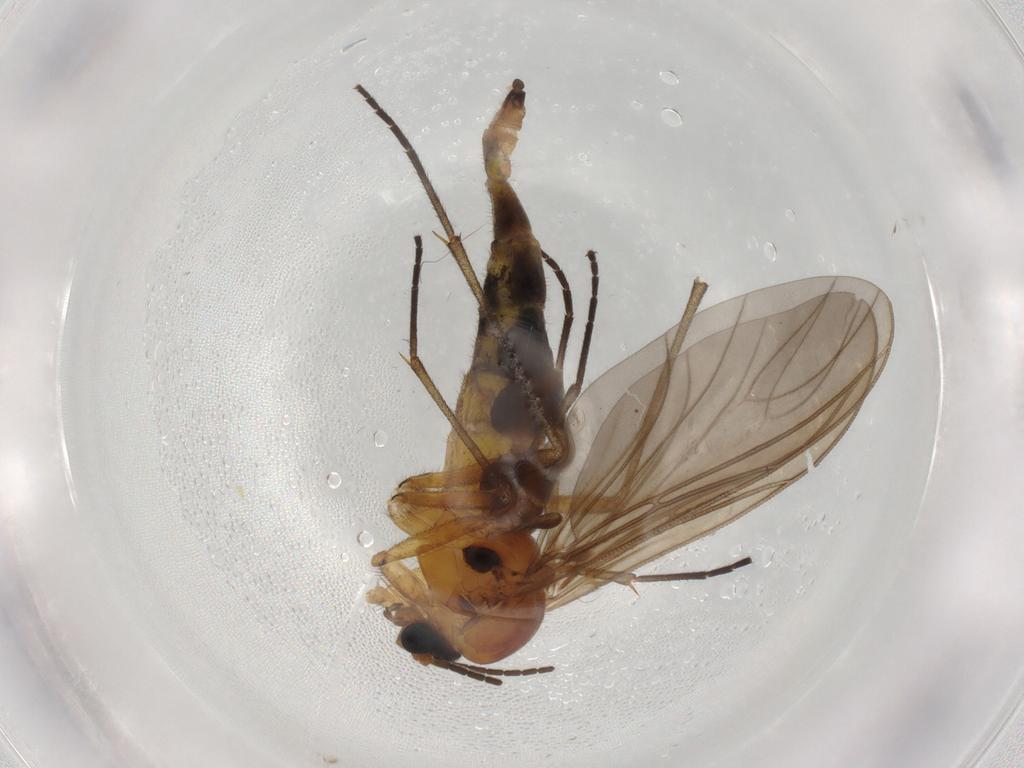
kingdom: Animalia
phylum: Arthropoda
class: Insecta
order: Diptera
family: Sciaridae
